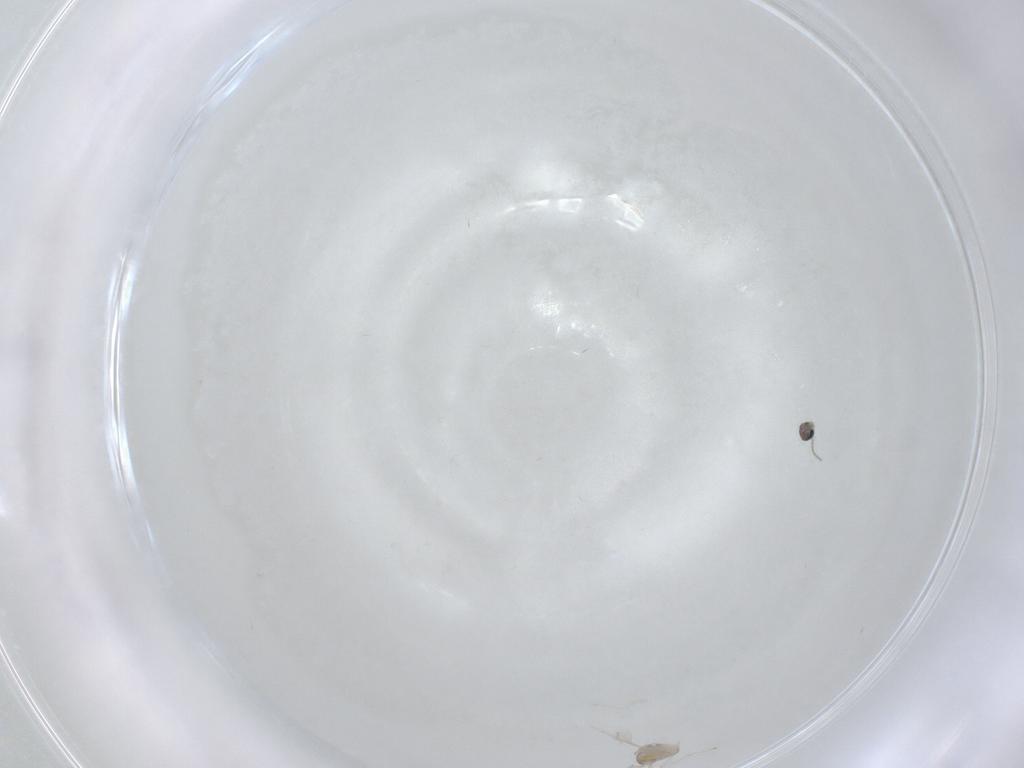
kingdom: Animalia
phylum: Arthropoda
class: Insecta
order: Diptera
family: Cecidomyiidae
